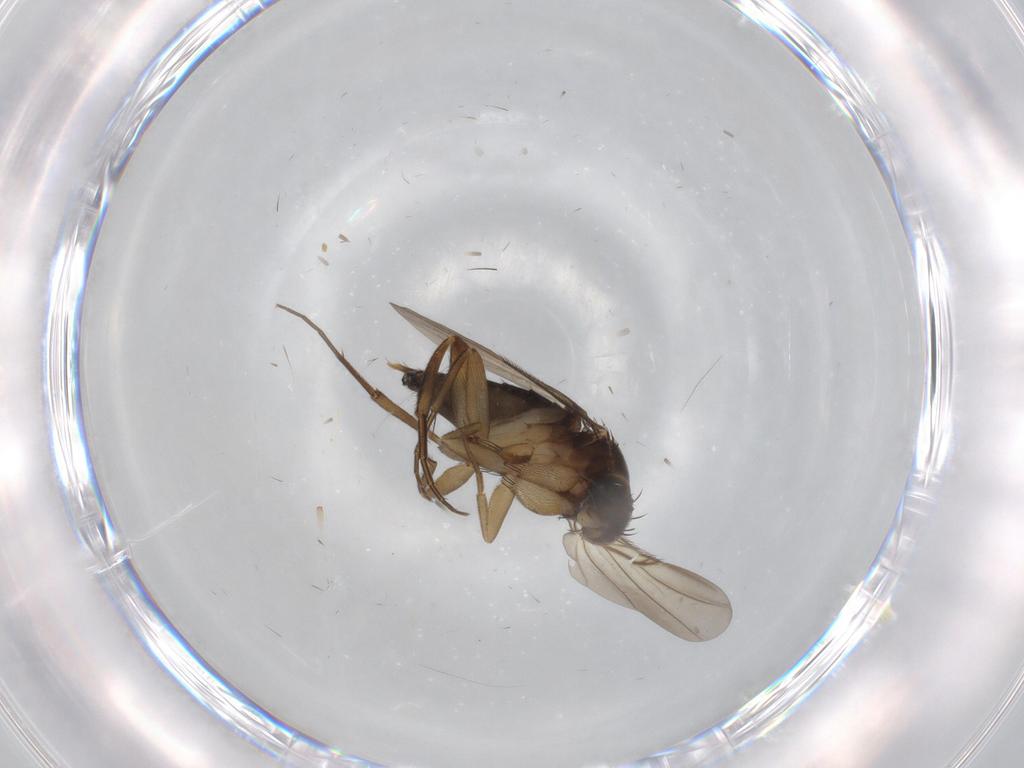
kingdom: Animalia
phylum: Arthropoda
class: Insecta
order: Diptera
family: Phoridae
